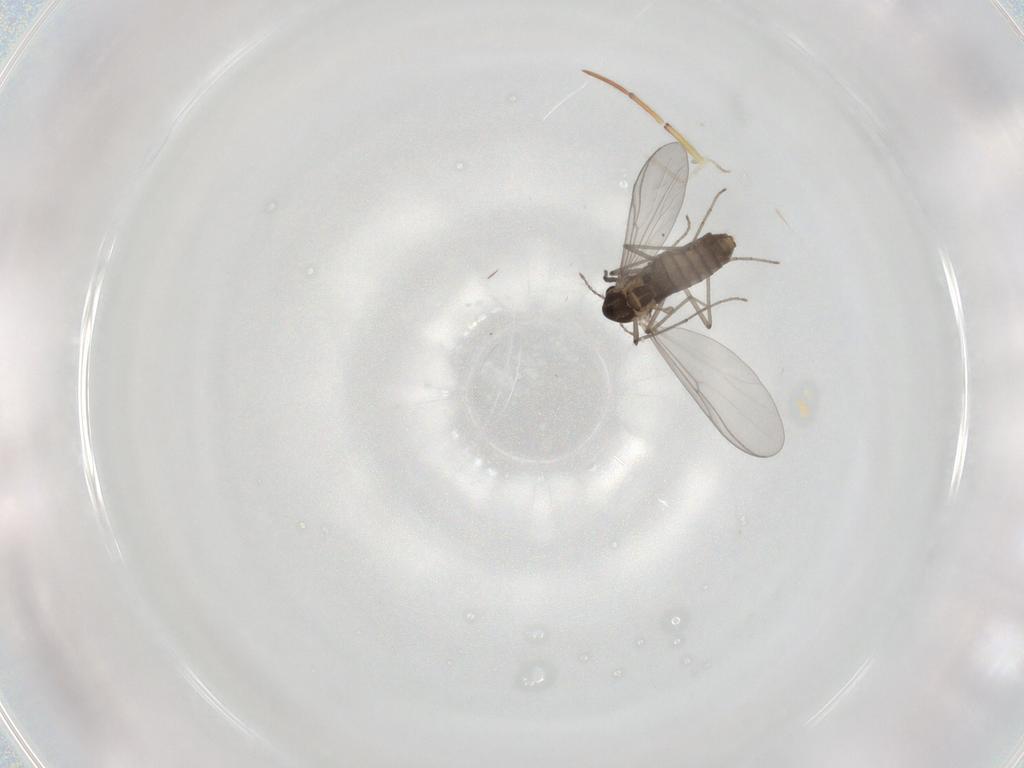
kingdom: Animalia
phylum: Arthropoda
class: Insecta
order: Diptera
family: Chironomidae
